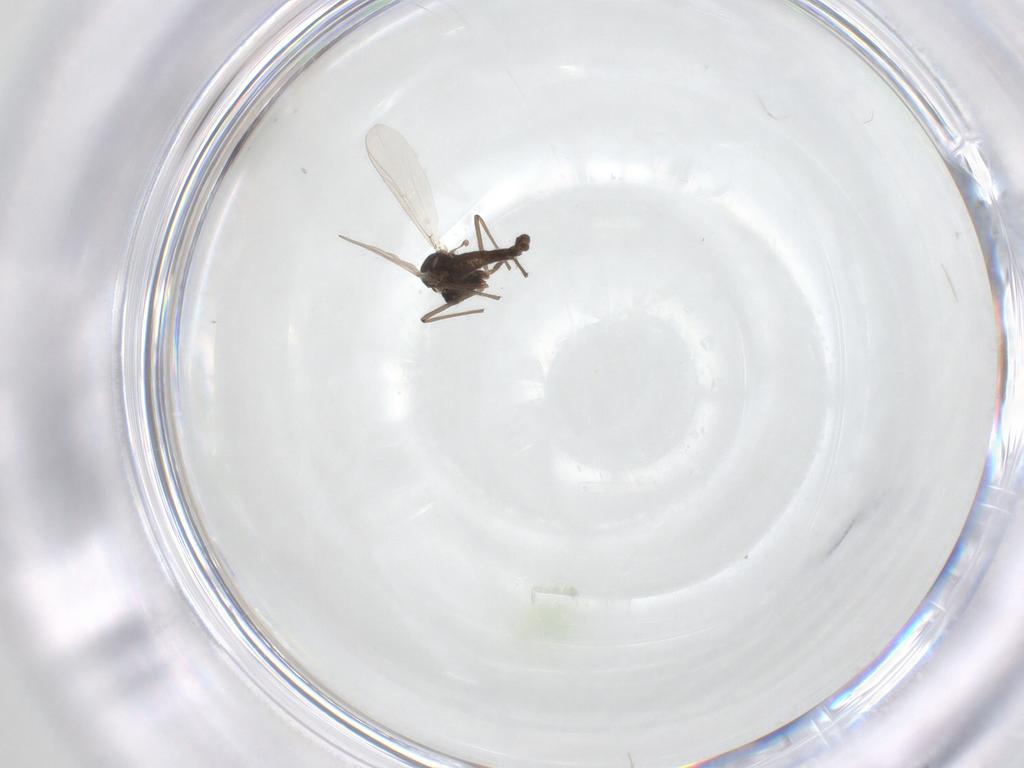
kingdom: Animalia
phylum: Arthropoda
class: Insecta
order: Diptera
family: Chironomidae
